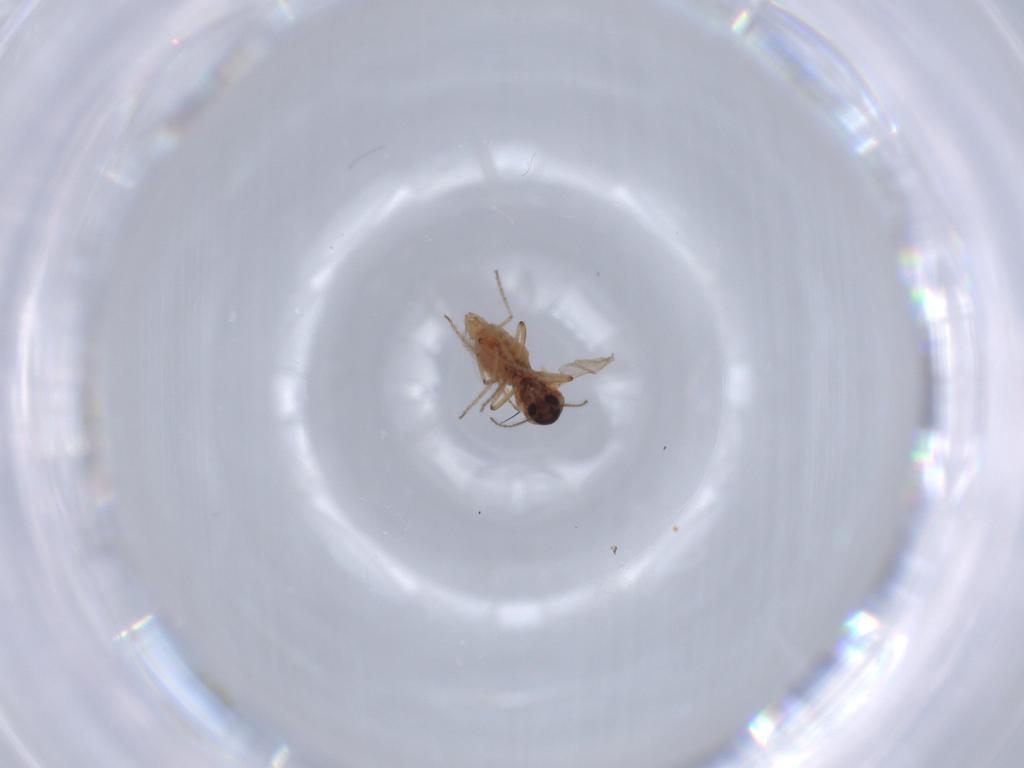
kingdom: Animalia
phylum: Arthropoda
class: Insecta
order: Diptera
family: Ceratopogonidae
